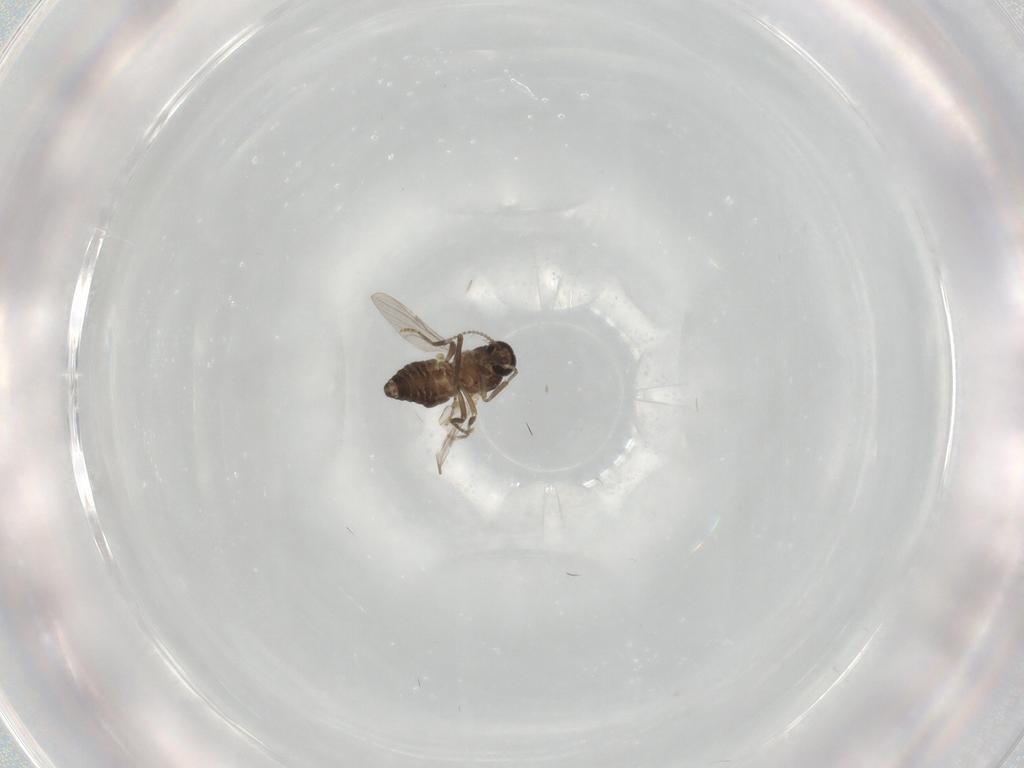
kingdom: Animalia
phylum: Arthropoda
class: Insecta
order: Diptera
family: Ceratopogonidae
